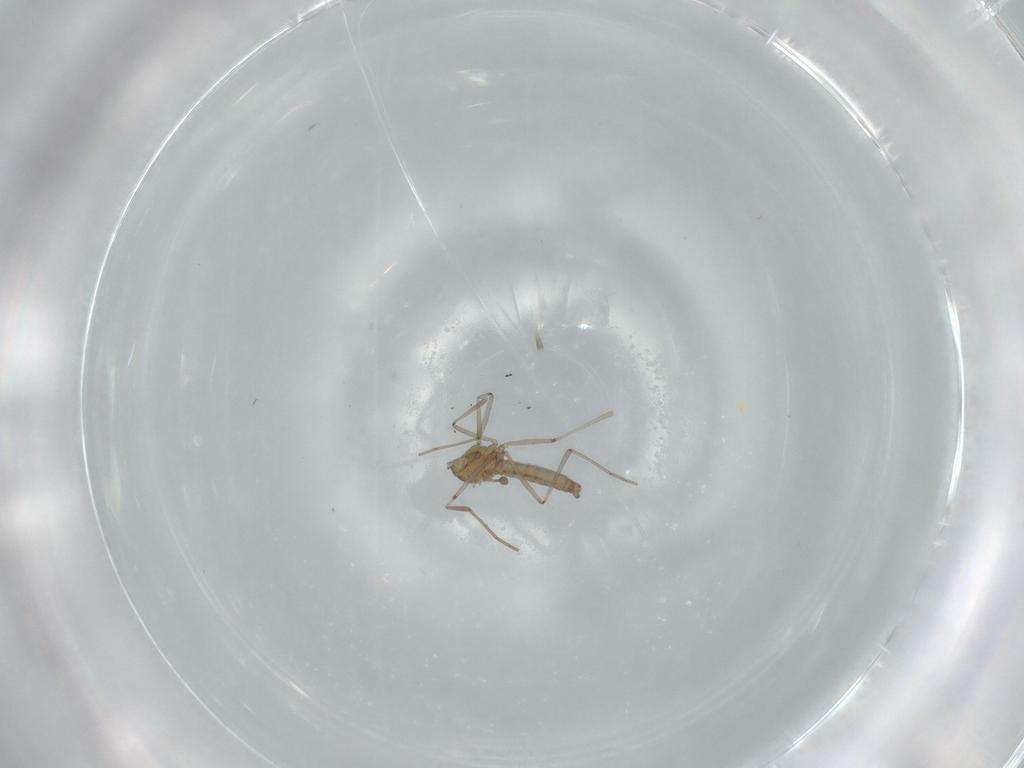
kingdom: Animalia
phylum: Arthropoda
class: Insecta
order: Diptera
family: Cecidomyiidae
